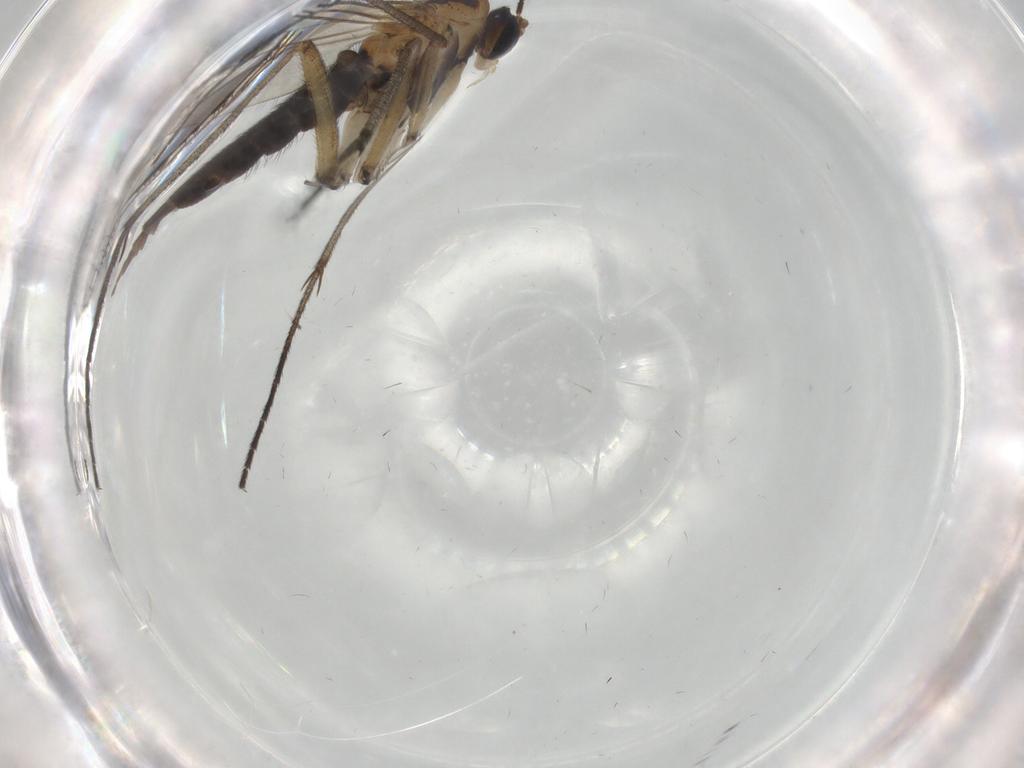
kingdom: Animalia
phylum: Arthropoda
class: Insecta
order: Diptera
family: Sciaridae
